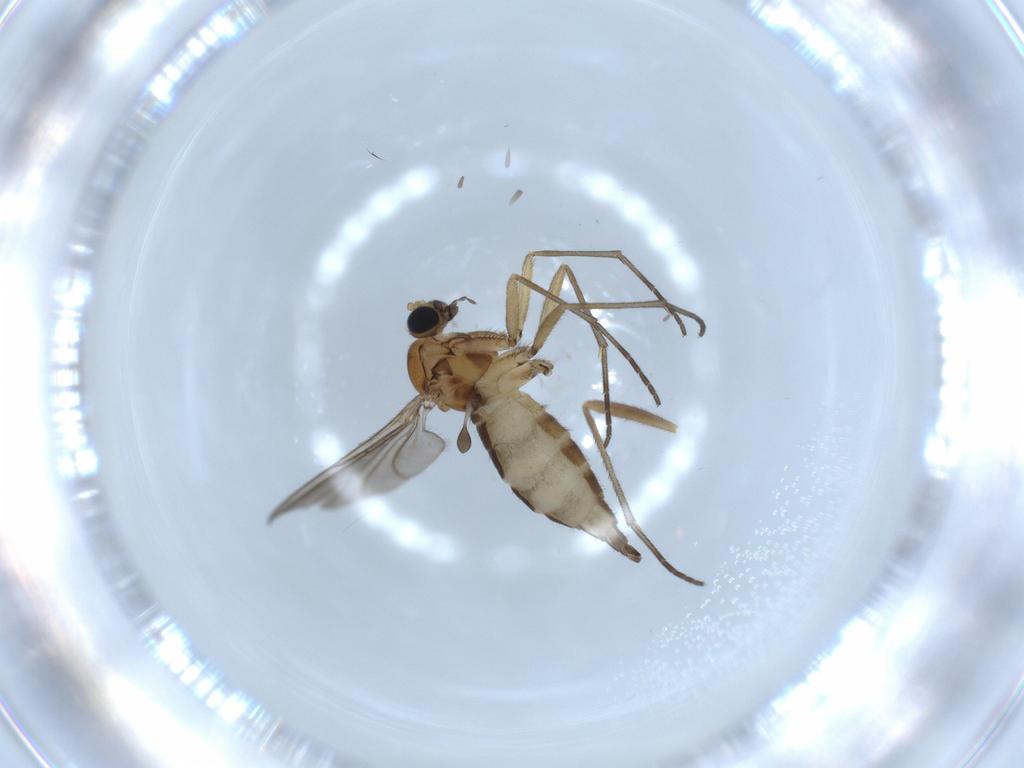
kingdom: Animalia
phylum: Arthropoda
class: Insecta
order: Diptera
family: Sciaridae
